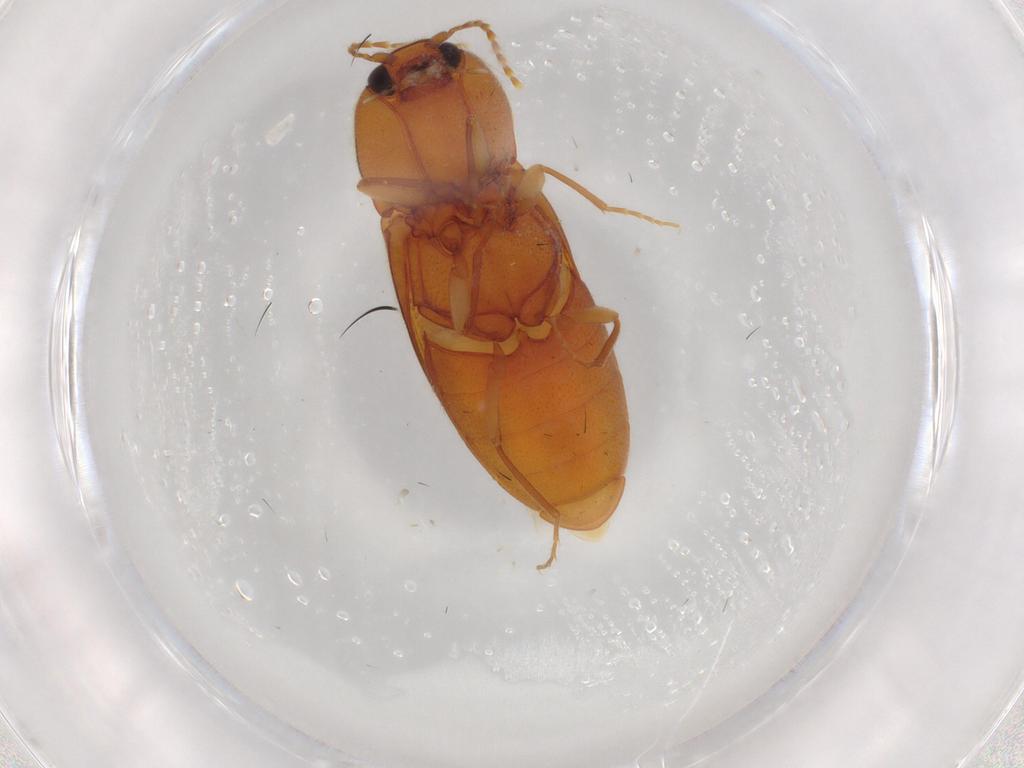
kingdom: Animalia
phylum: Arthropoda
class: Insecta
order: Coleoptera
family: Elateridae
